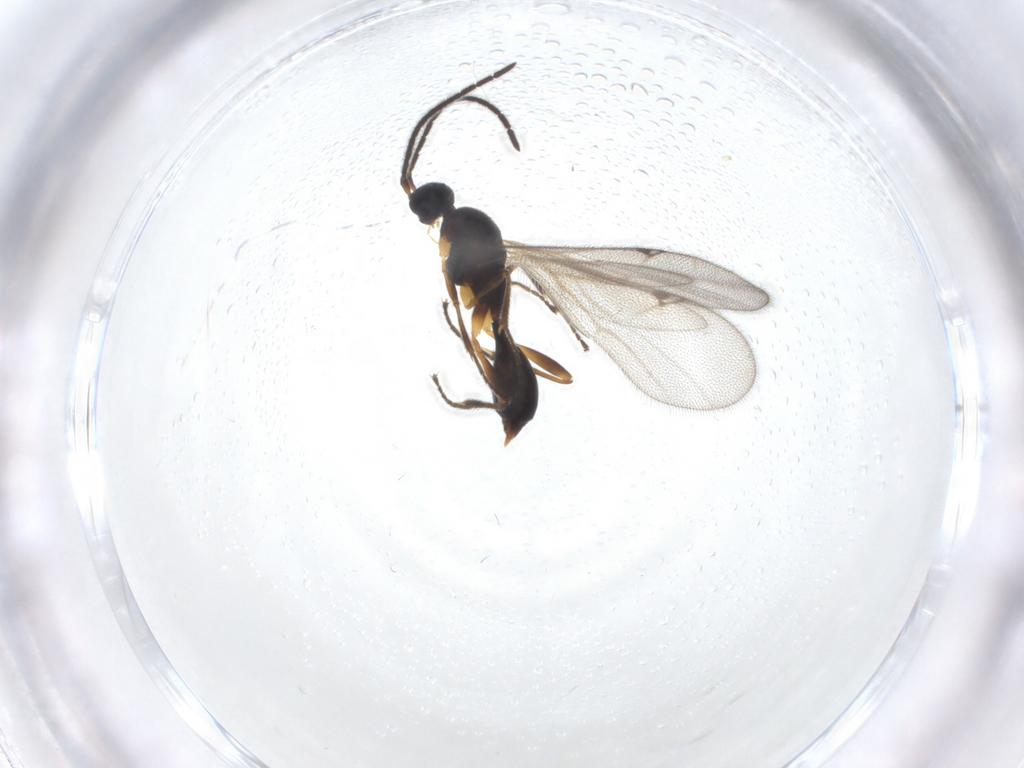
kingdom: Animalia
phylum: Arthropoda
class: Insecta
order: Hymenoptera
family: Proctotrupidae
